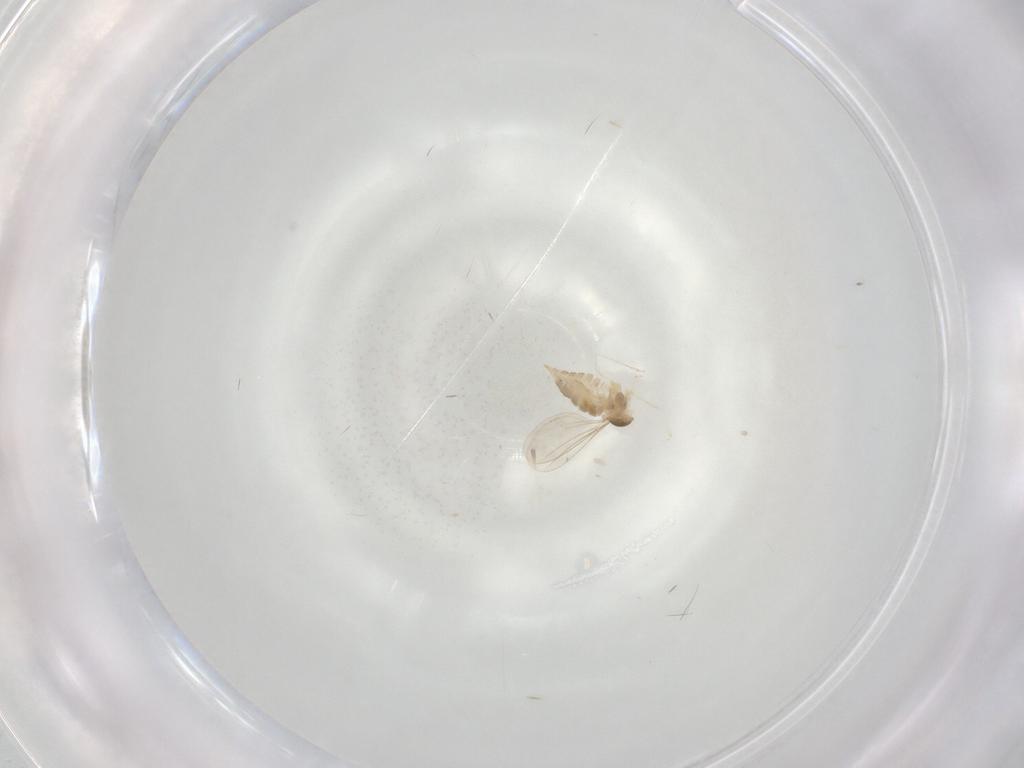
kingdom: Animalia
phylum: Arthropoda
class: Insecta
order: Diptera
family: Cecidomyiidae
